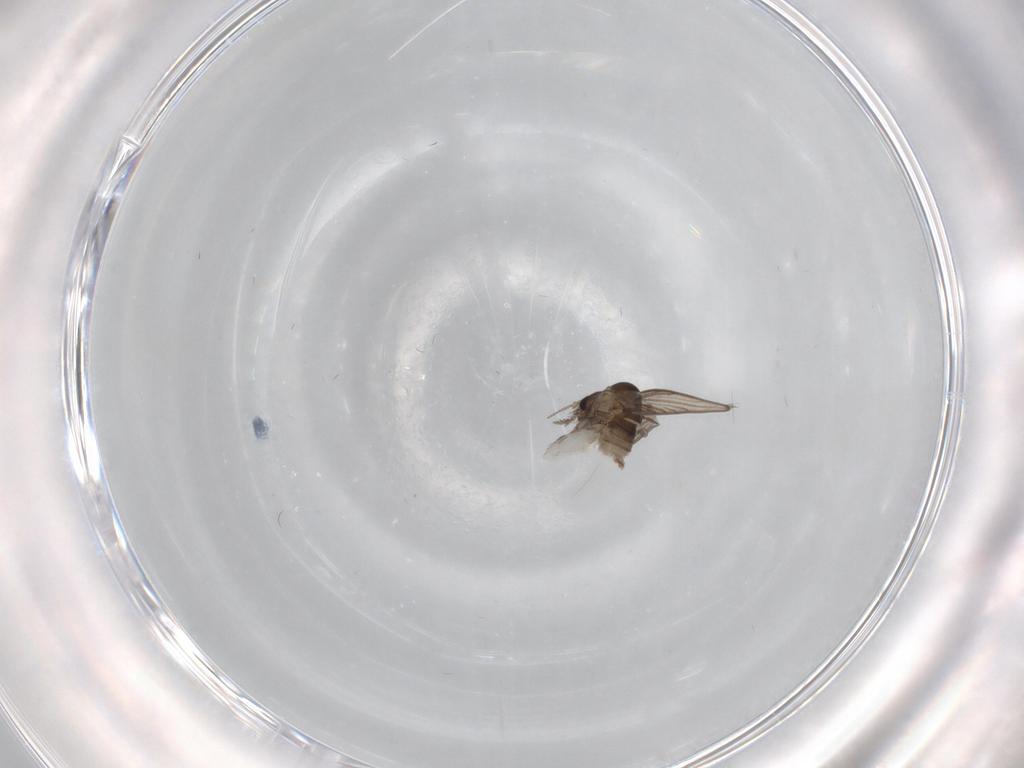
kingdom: Animalia
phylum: Arthropoda
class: Insecta
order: Diptera
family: Psychodidae
